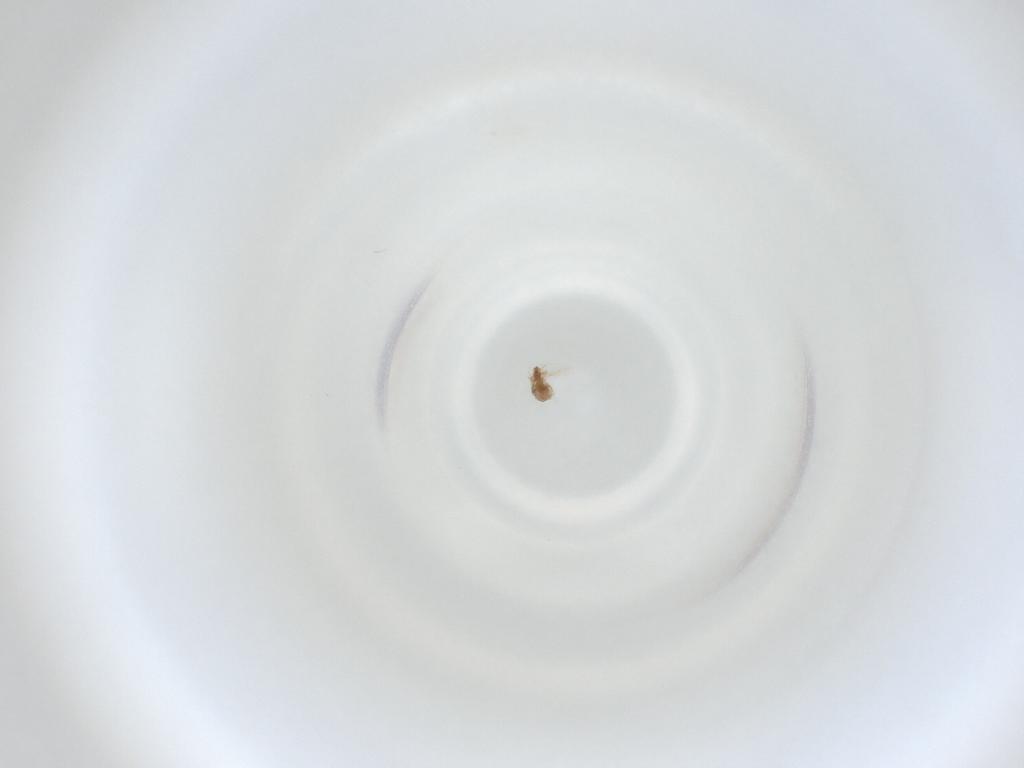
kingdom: Animalia
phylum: Arthropoda
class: Insecta
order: Diptera
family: Cecidomyiidae
